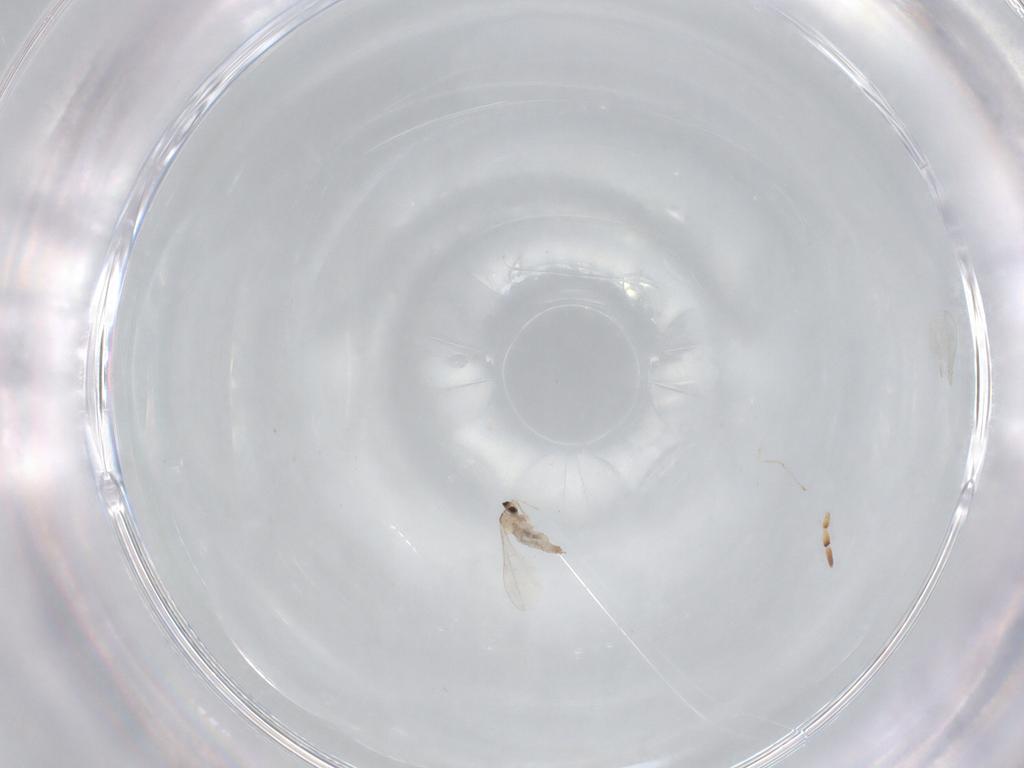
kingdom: Animalia
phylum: Arthropoda
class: Insecta
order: Diptera
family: Cecidomyiidae
